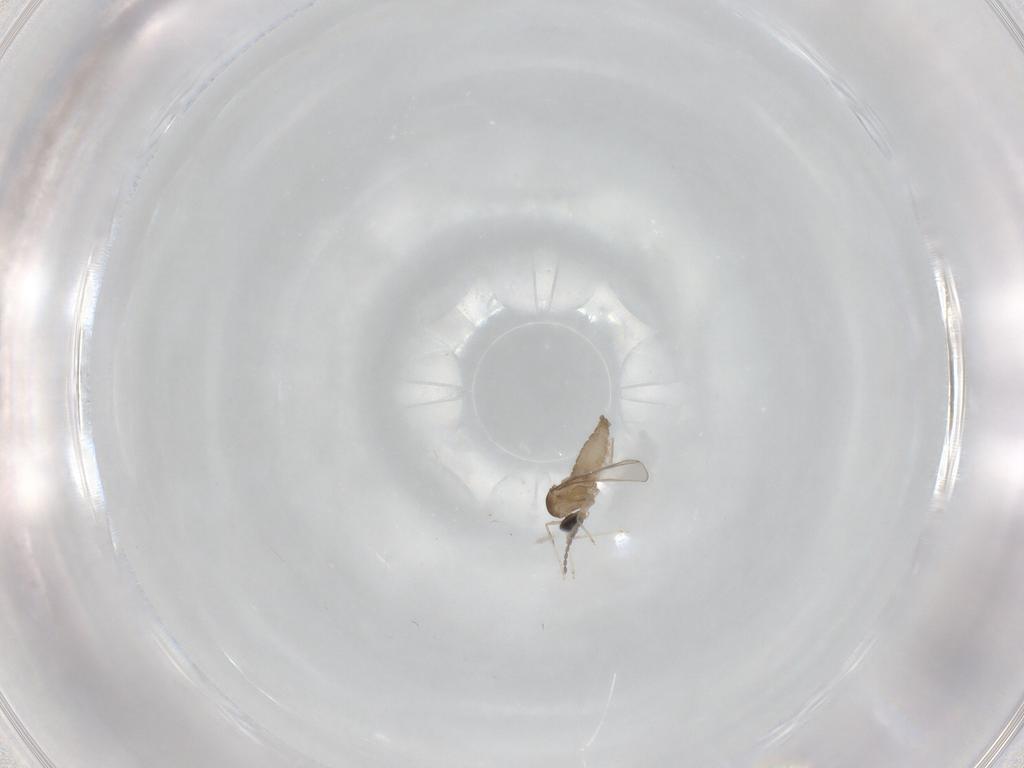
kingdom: Animalia
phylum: Arthropoda
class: Insecta
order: Diptera
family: Cecidomyiidae
